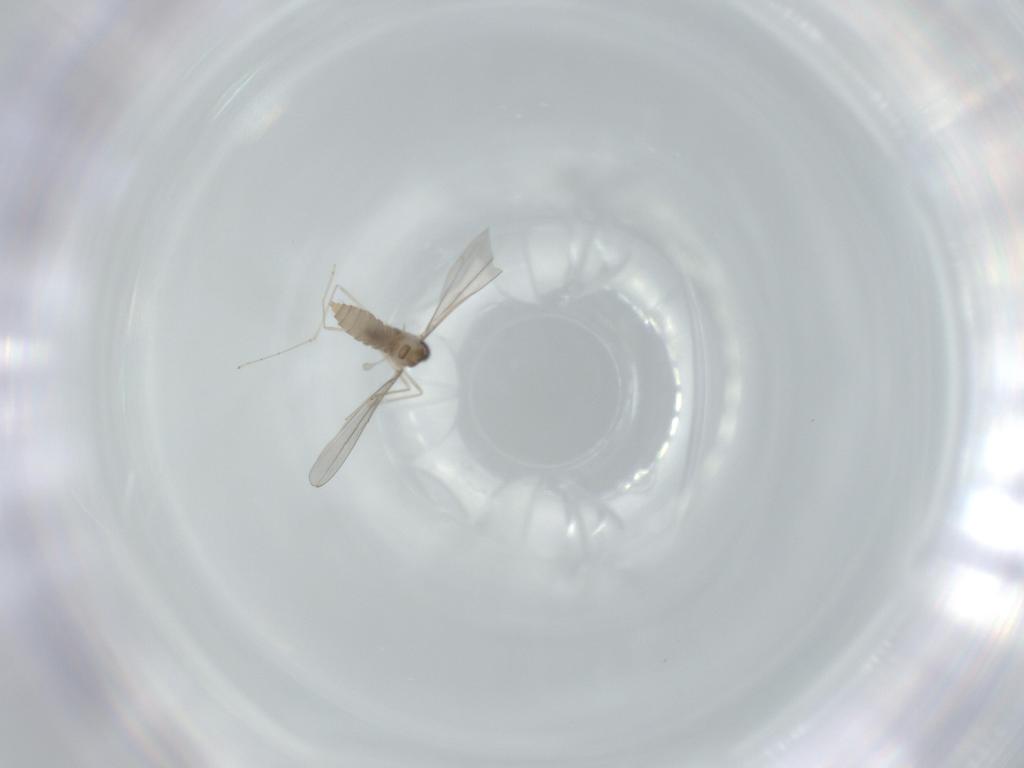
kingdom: Animalia
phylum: Arthropoda
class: Insecta
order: Diptera
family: Cecidomyiidae
